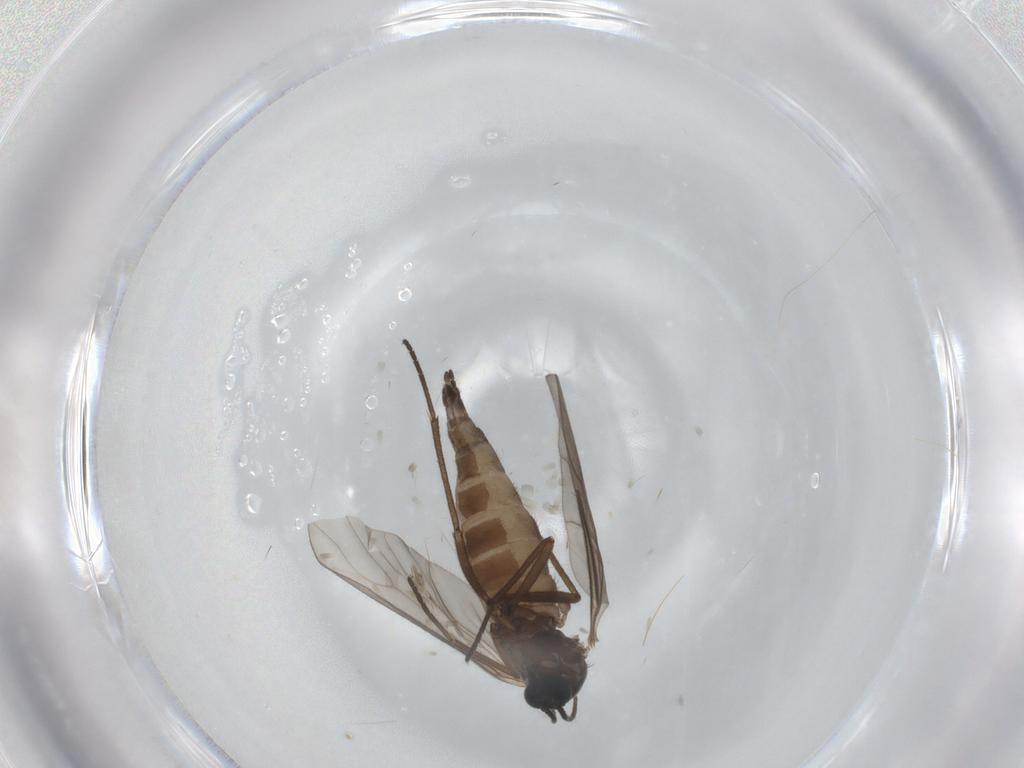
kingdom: Animalia
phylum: Arthropoda
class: Insecta
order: Diptera
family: Sciaridae
